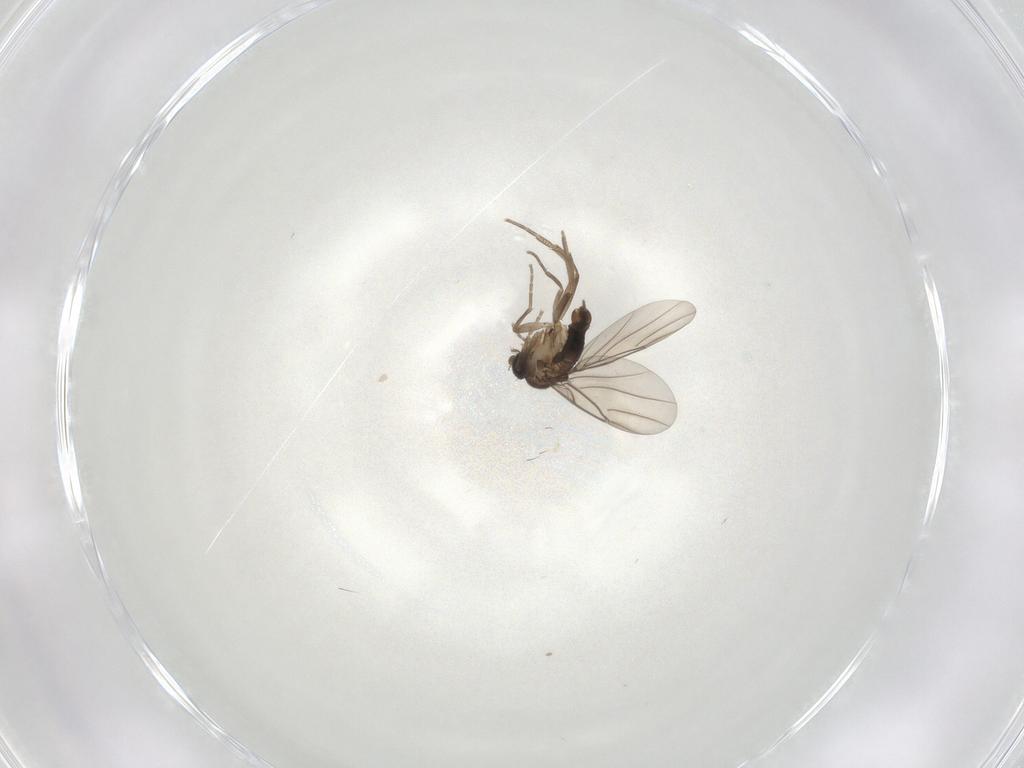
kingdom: Animalia
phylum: Arthropoda
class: Insecta
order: Diptera
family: Phoridae
